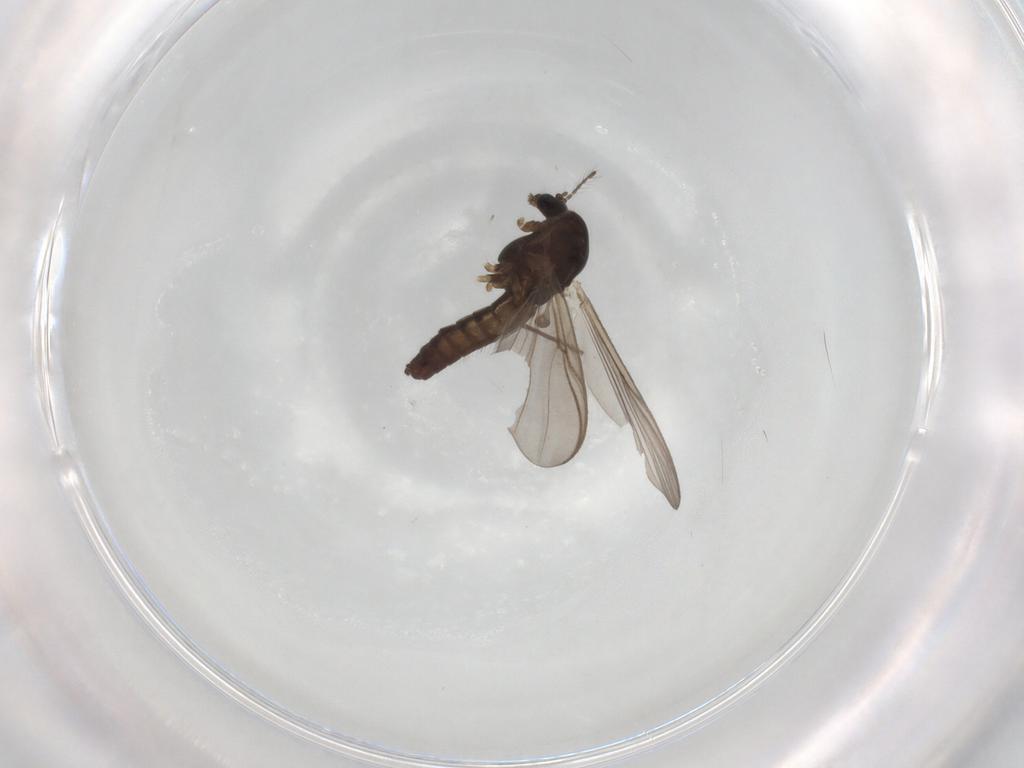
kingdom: Animalia
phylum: Arthropoda
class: Insecta
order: Diptera
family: Chironomidae
